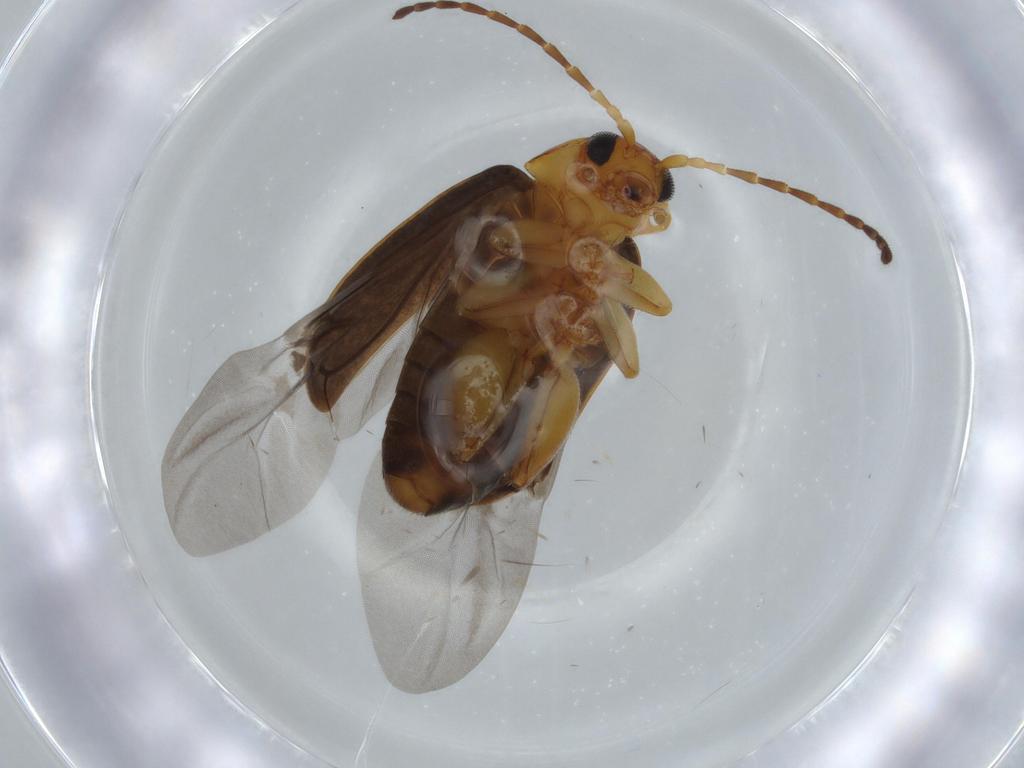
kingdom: Animalia
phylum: Arthropoda
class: Insecta
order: Coleoptera
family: Chrysomelidae
